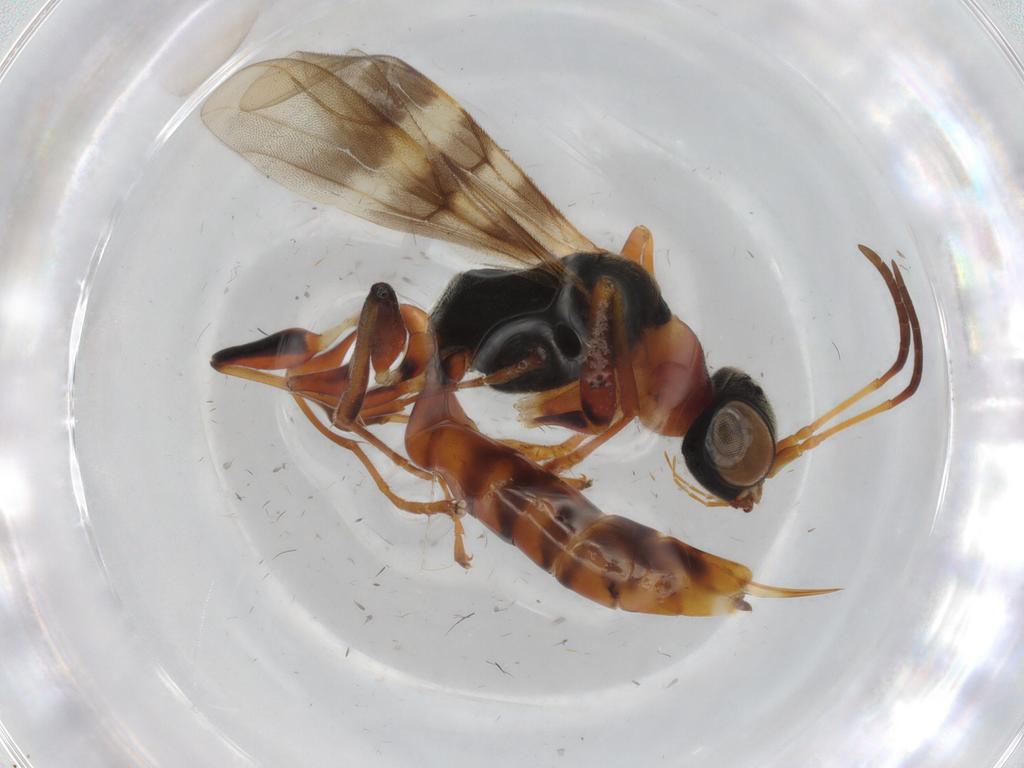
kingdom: Animalia
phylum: Arthropoda
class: Insecta
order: Hymenoptera
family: Dryinidae
